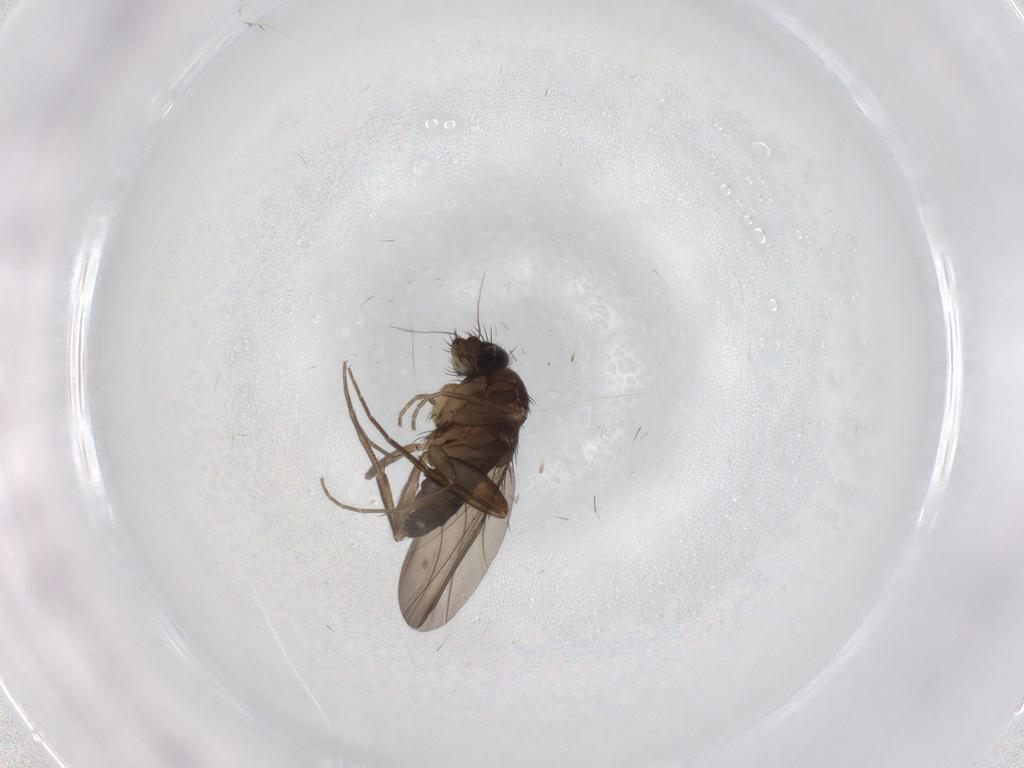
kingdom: Animalia
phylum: Arthropoda
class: Insecta
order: Diptera
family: Phoridae
